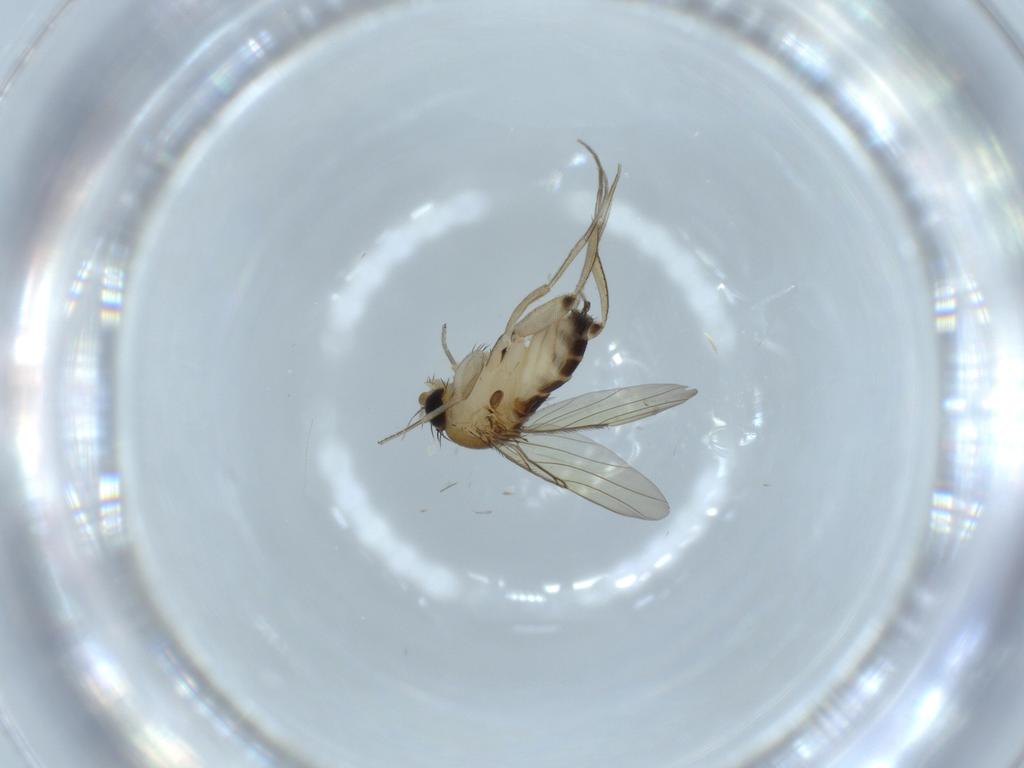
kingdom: Animalia
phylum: Arthropoda
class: Insecta
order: Diptera
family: Phoridae
